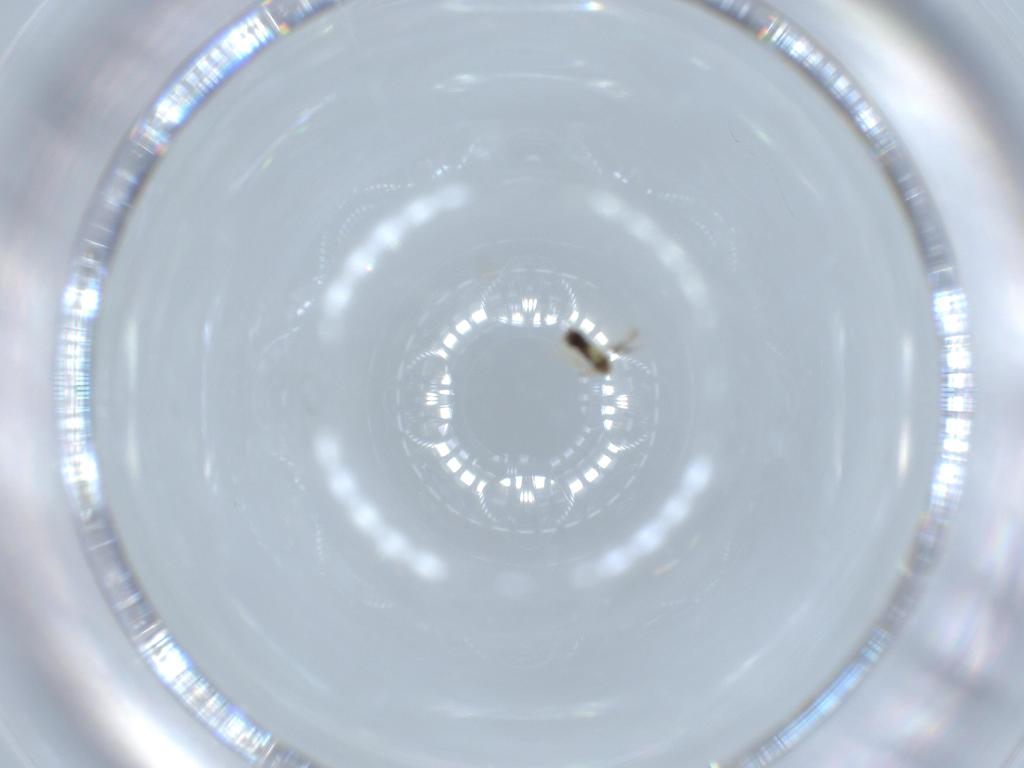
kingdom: Animalia
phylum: Arthropoda
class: Insecta
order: Hymenoptera
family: Aphelinidae
